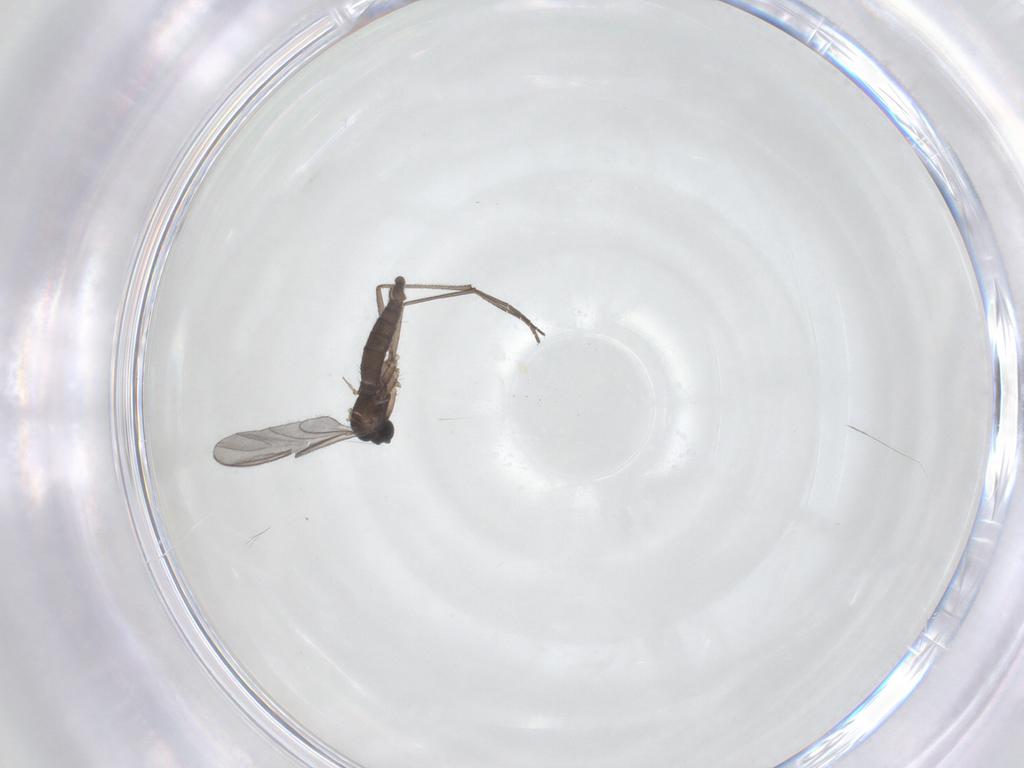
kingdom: Animalia
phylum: Arthropoda
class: Insecta
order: Diptera
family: Sciaridae
